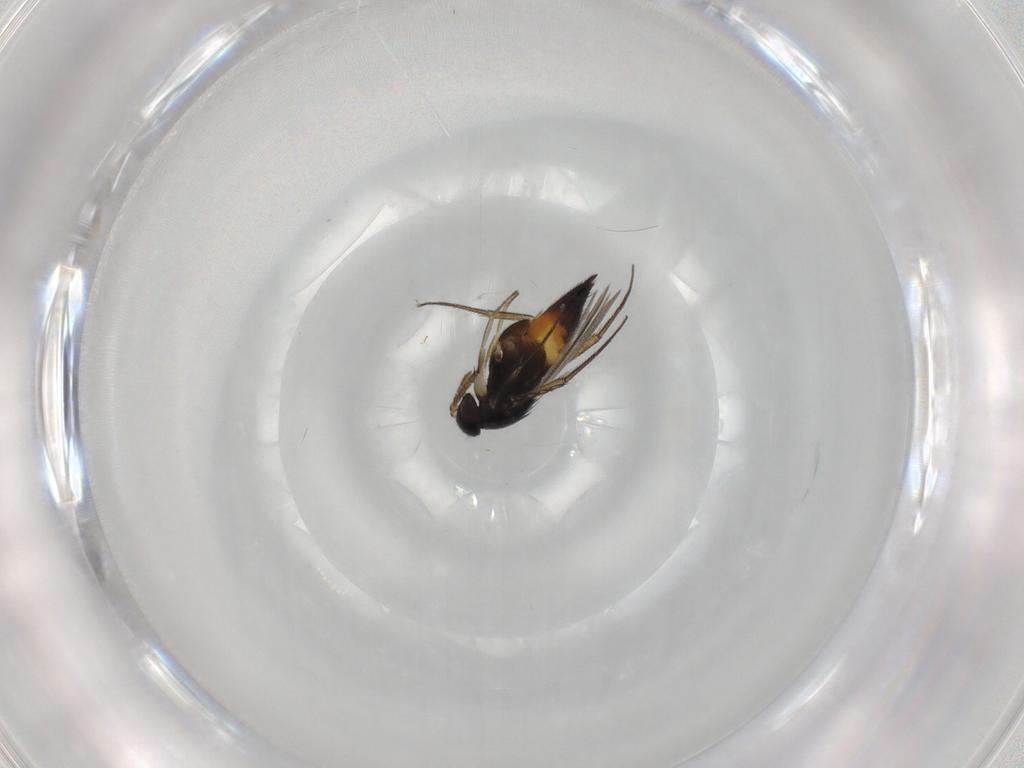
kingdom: Animalia
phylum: Arthropoda
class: Insecta
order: Hymenoptera
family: Eulophidae
